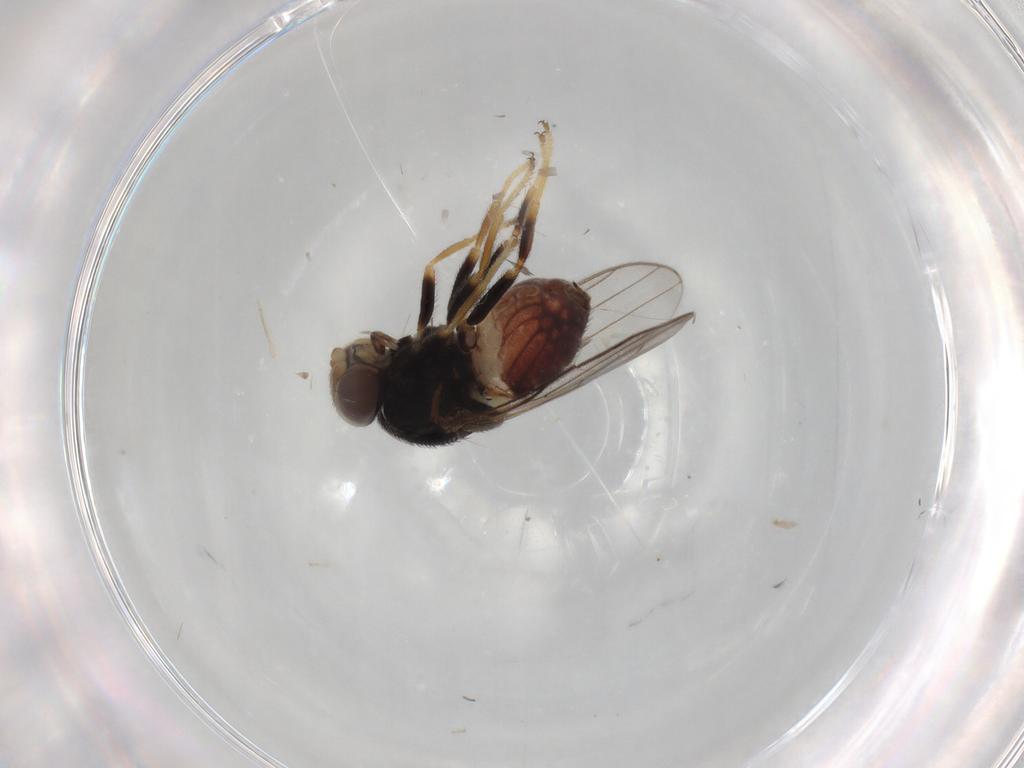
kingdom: Animalia
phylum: Arthropoda
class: Insecta
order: Diptera
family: Chloropidae
